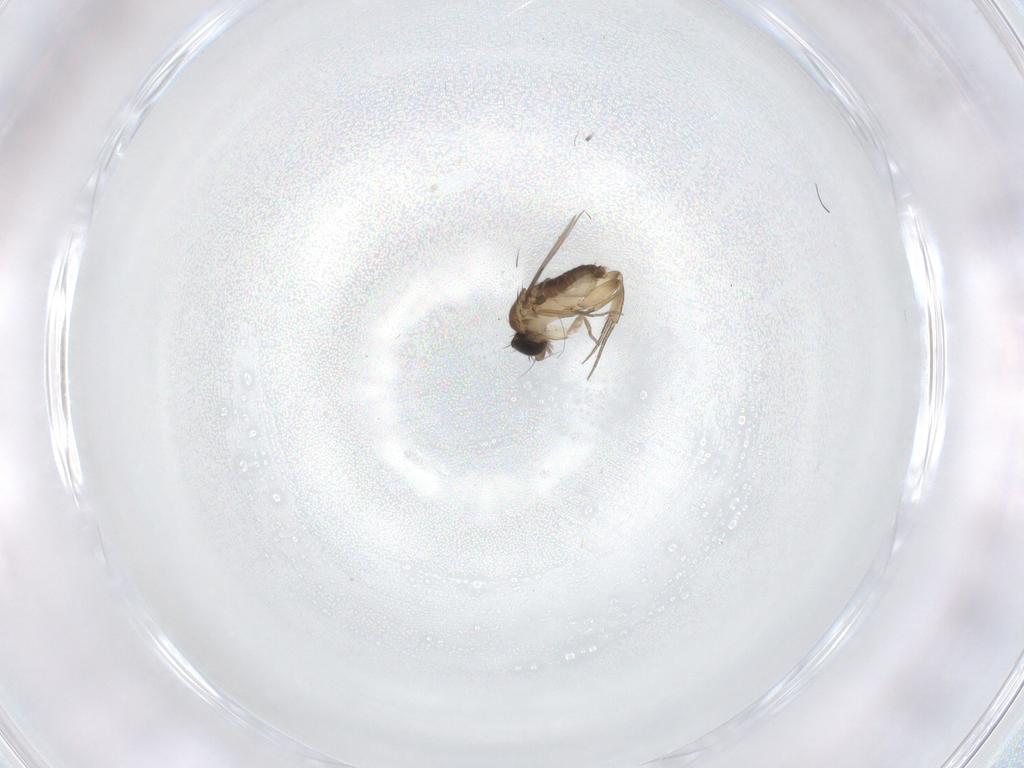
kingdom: Animalia
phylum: Arthropoda
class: Insecta
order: Diptera
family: Phoridae
